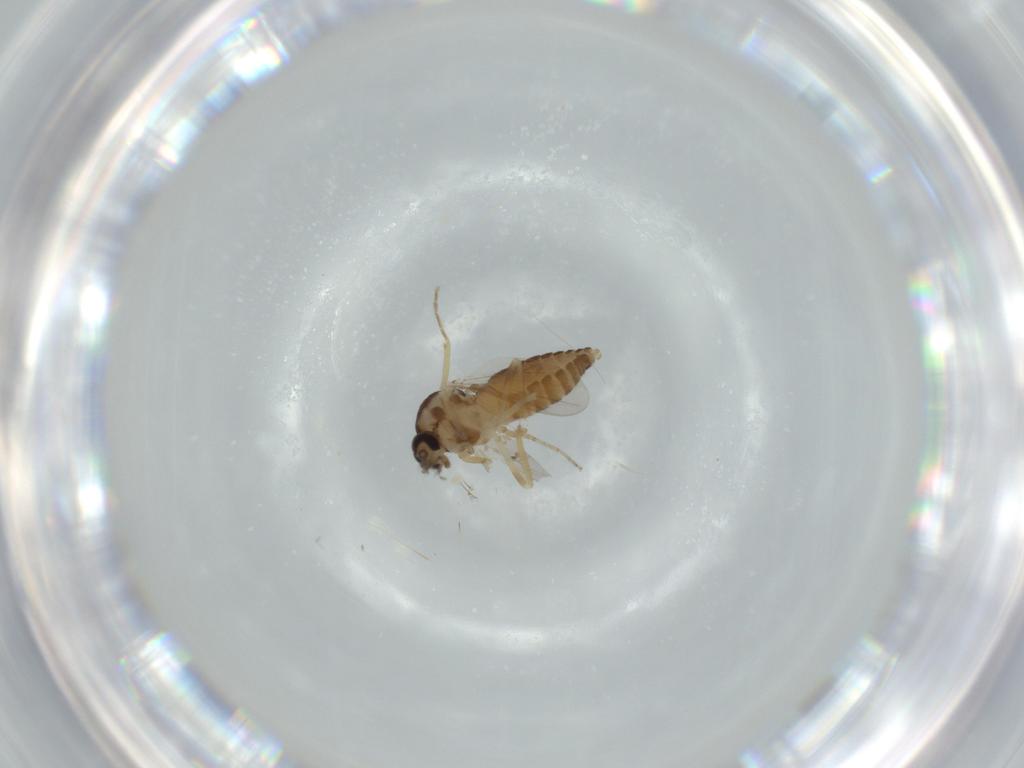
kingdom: Animalia
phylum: Arthropoda
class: Insecta
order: Diptera
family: Ceratopogonidae
